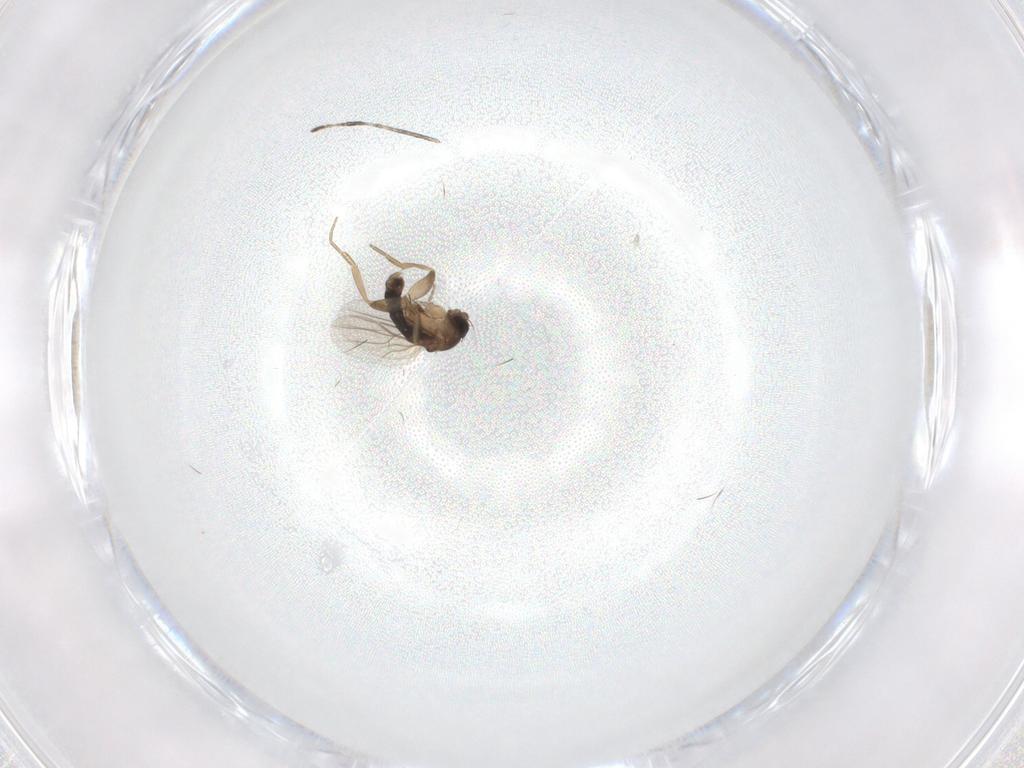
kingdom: Animalia
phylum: Arthropoda
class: Insecta
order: Diptera
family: Phoridae
